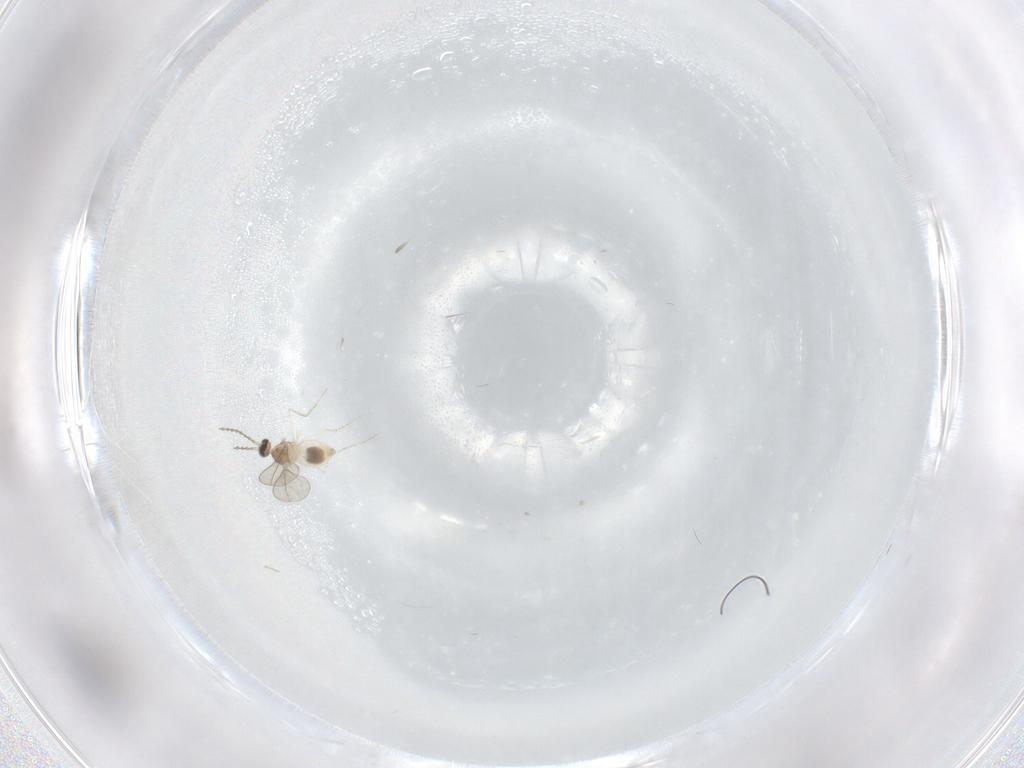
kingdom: Animalia
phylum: Arthropoda
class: Insecta
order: Diptera
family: Cecidomyiidae
